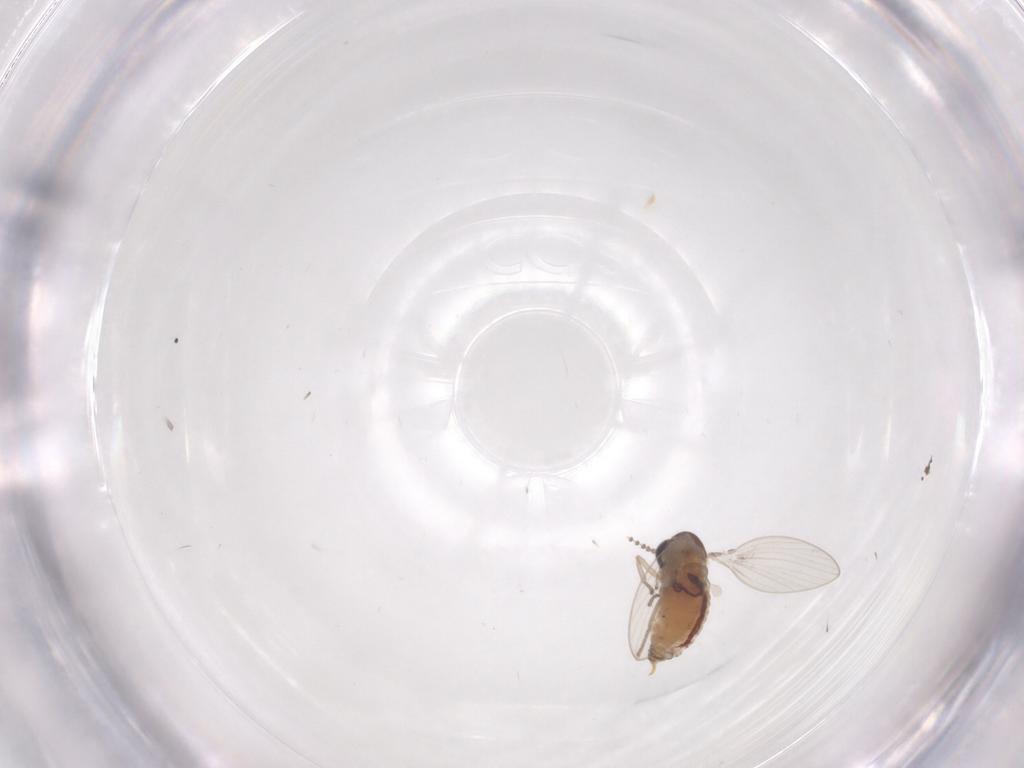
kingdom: Animalia
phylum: Arthropoda
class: Insecta
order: Diptera
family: Psychodidae
